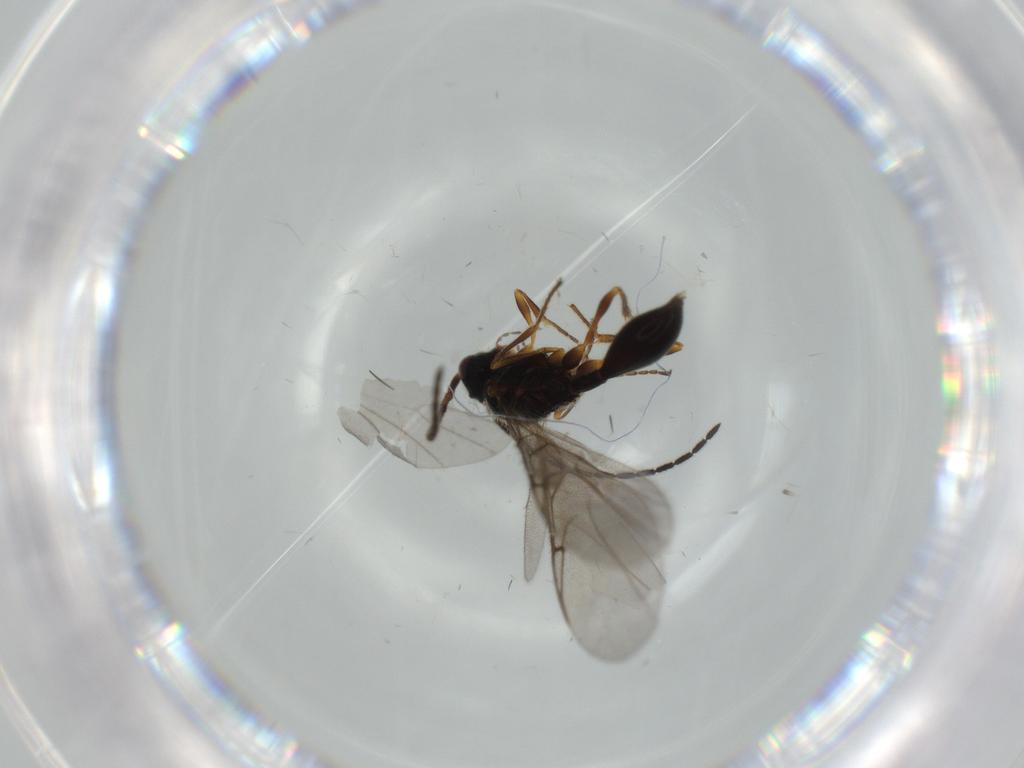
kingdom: Animalia
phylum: Arthropoda
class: Insecta
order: Hymenoptera
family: Diapriidae
